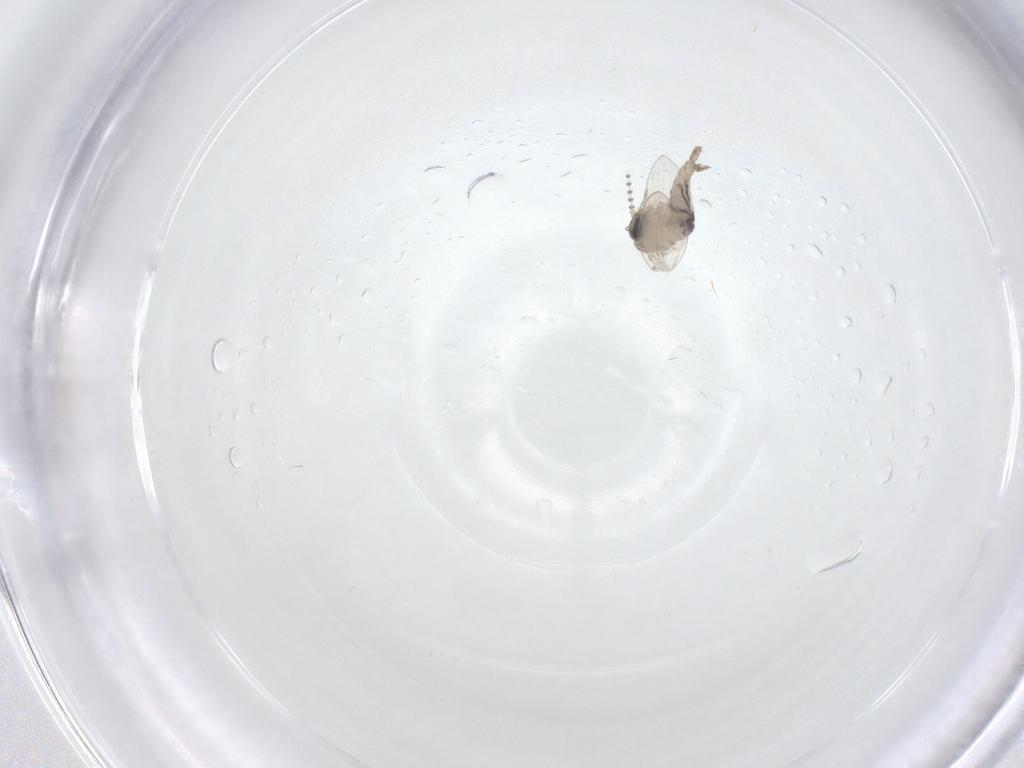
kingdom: Animalia
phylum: Arthropoda
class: Insecta
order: Diptera
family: Psychodidae
